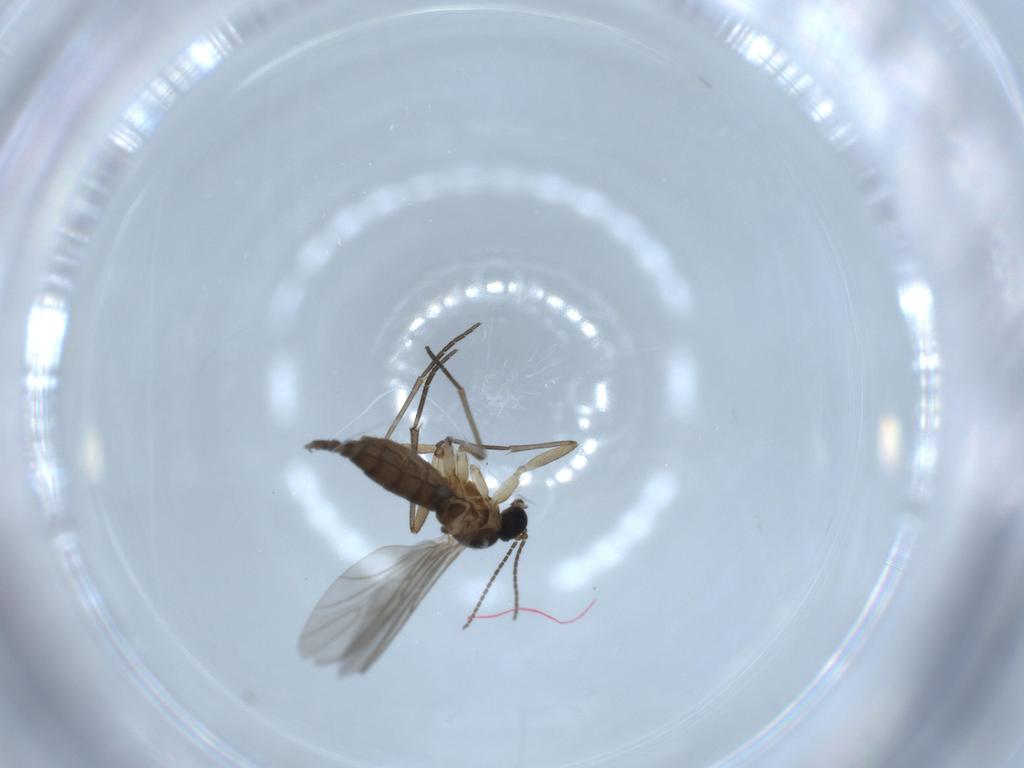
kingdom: Animalia
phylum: Arthropoda
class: Insecta
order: Diptera
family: Sciaridae
